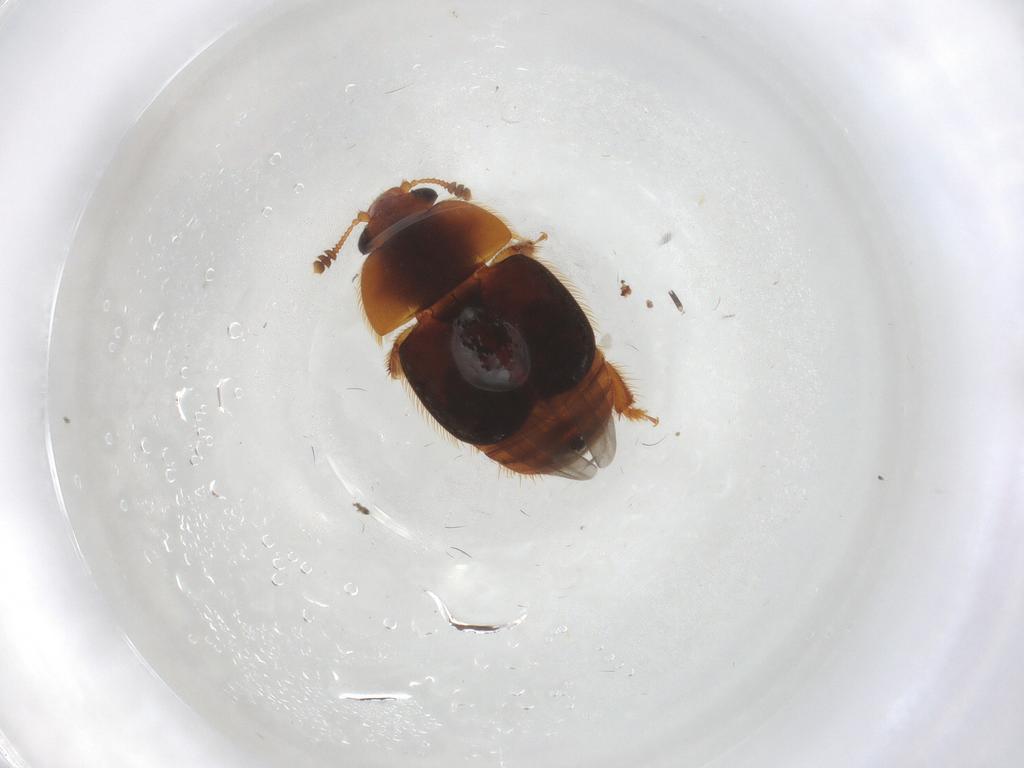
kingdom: Animalia
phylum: Arthropoda
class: Insecta
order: Coleoptera
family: Nitidulidae
